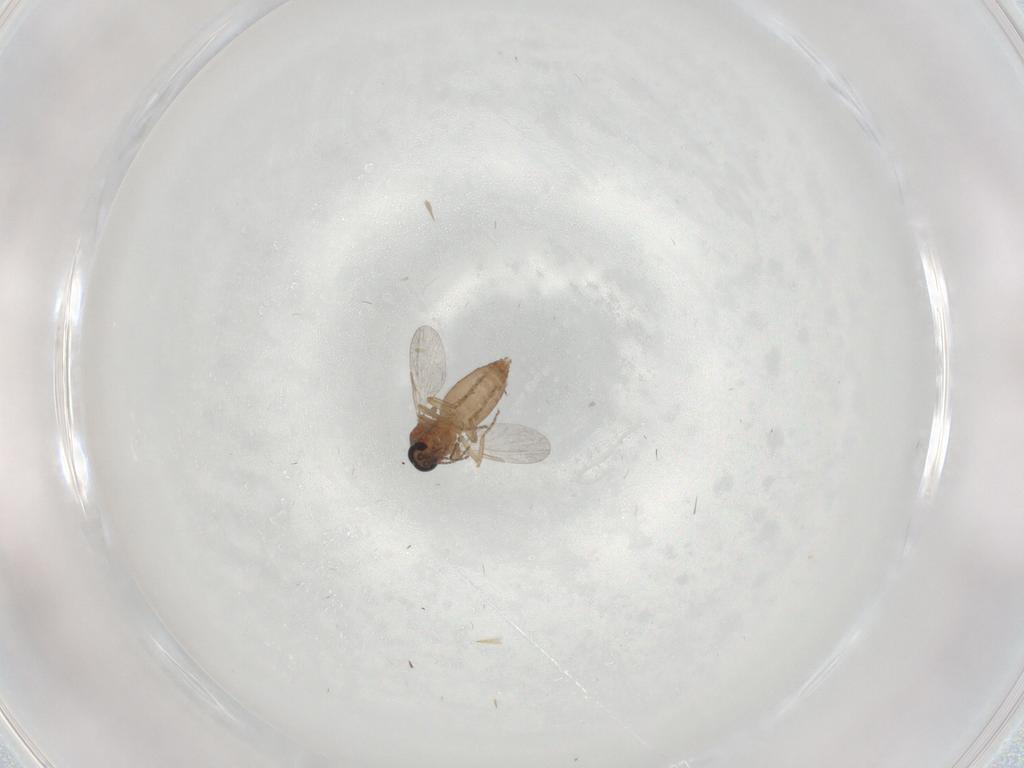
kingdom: Animalia
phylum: Arthropoda
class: Insecta
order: Diptera
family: Ceratopogonidae
